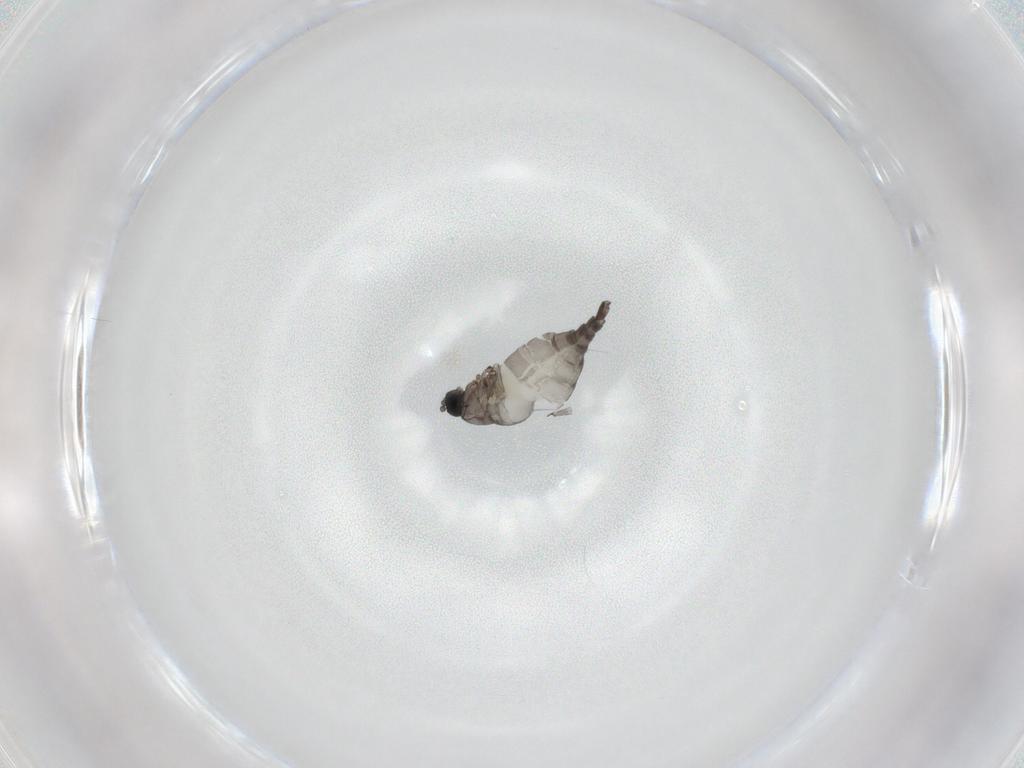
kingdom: Animalia
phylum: Arthropoda
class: Insecta
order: Diptera
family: Sciaridae
